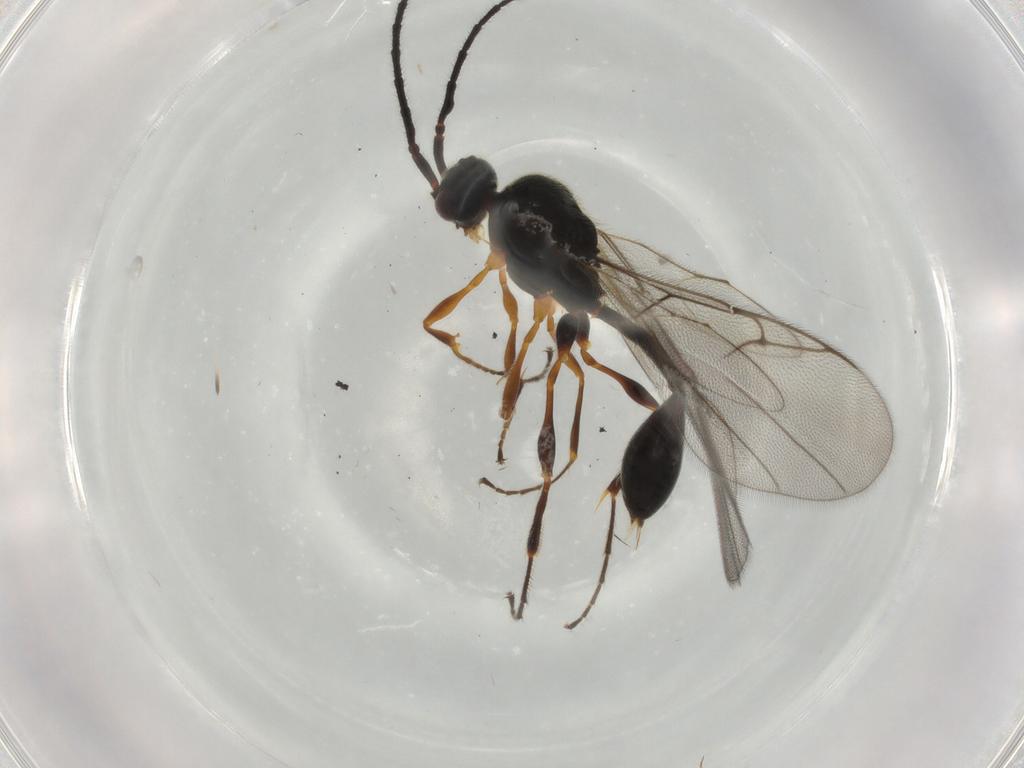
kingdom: Animalia
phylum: Arthropoda
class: Insecta
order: Hymenoptera
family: Diapriidae
